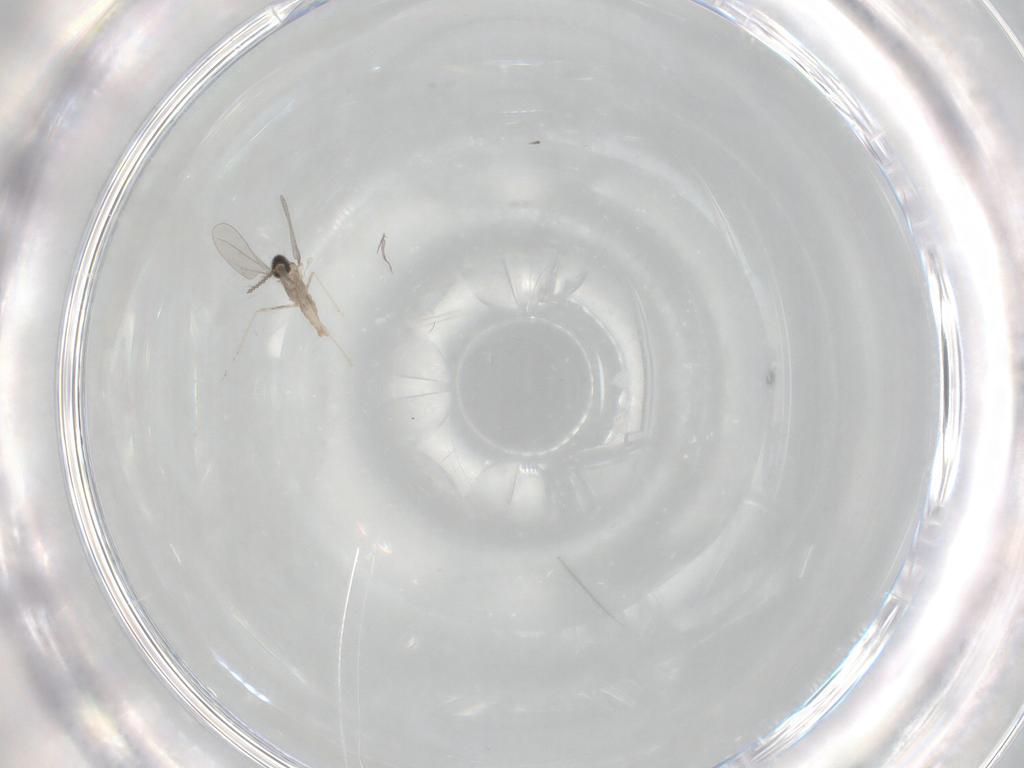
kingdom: Animalia
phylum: Arthropoda
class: Insecta
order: Diptera
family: Cecidomyiidae
